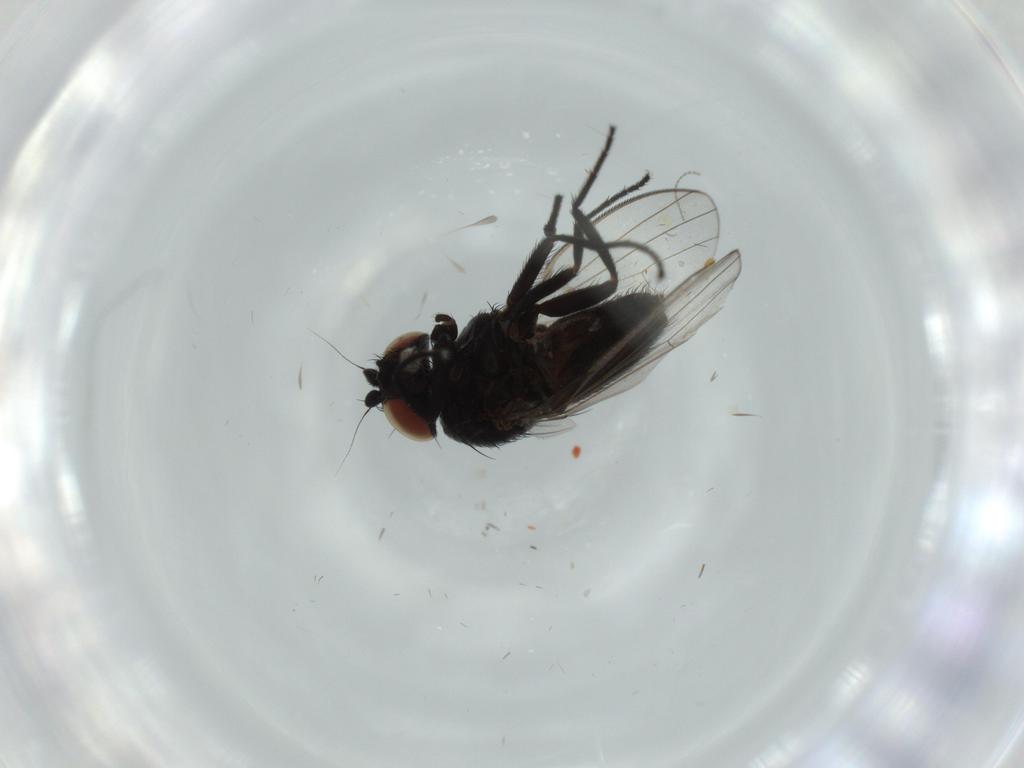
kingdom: Animalia
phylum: Arthropoda
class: Insecta
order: Diptera
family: Milichiidae
